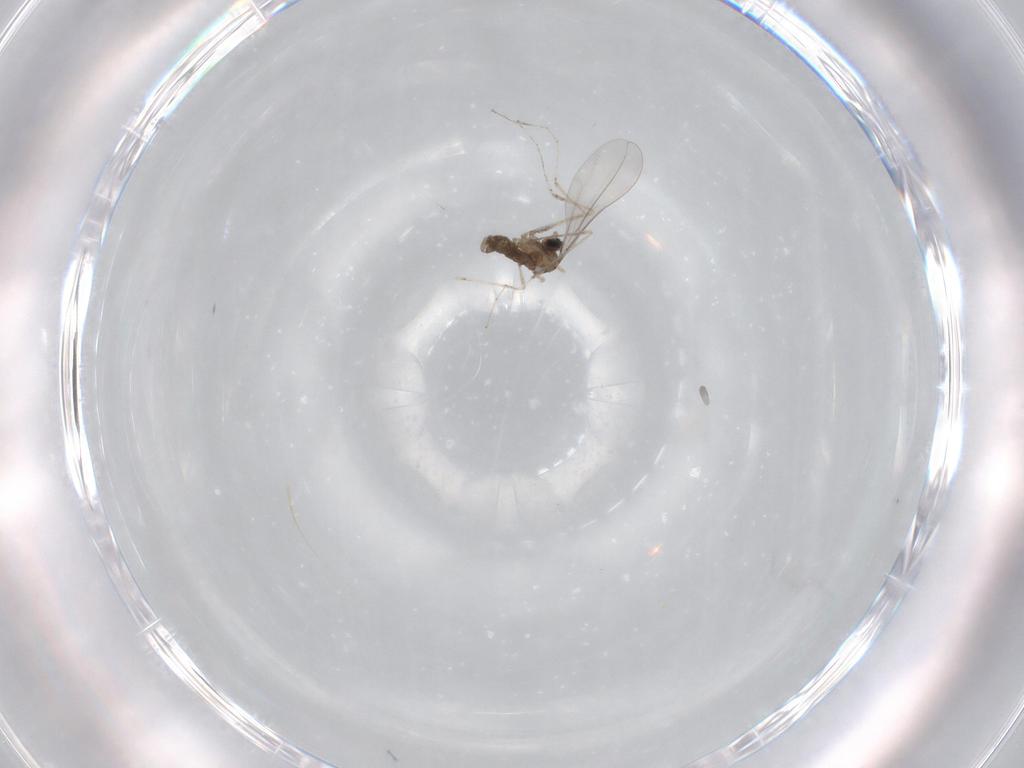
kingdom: Animalia
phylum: Arthropoda
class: Insecta
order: Diptera
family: Cecidomyiidae
